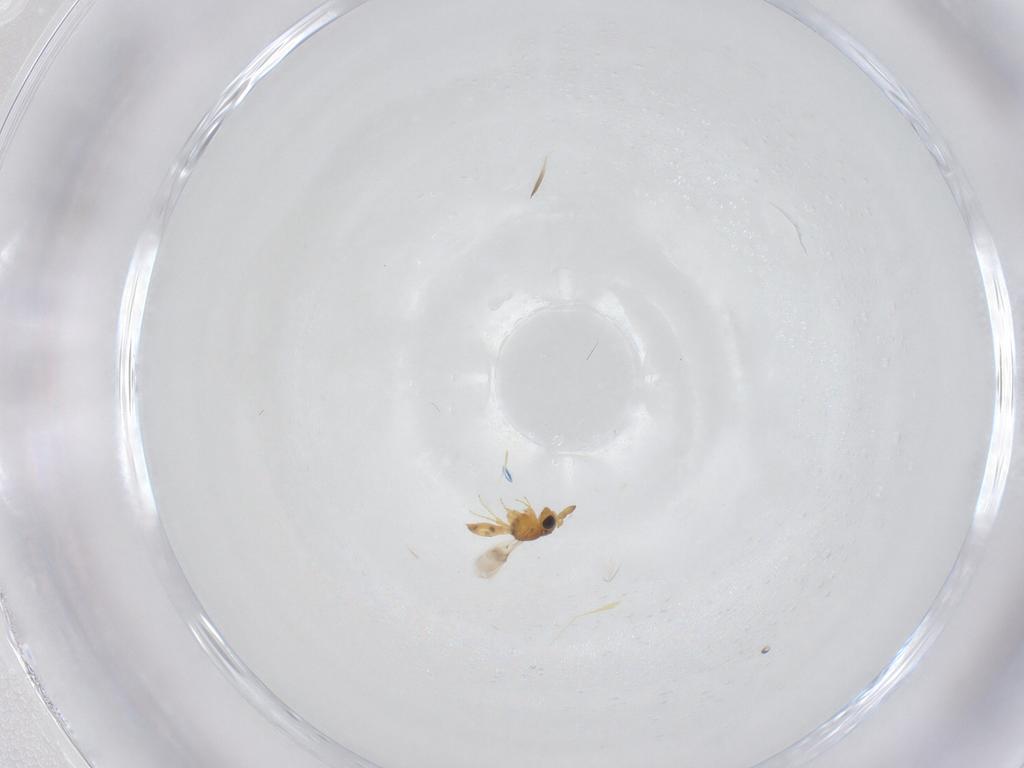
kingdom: Animalia
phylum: Arthropoda
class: Insecta
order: Hymenoptera
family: Scelionidae
